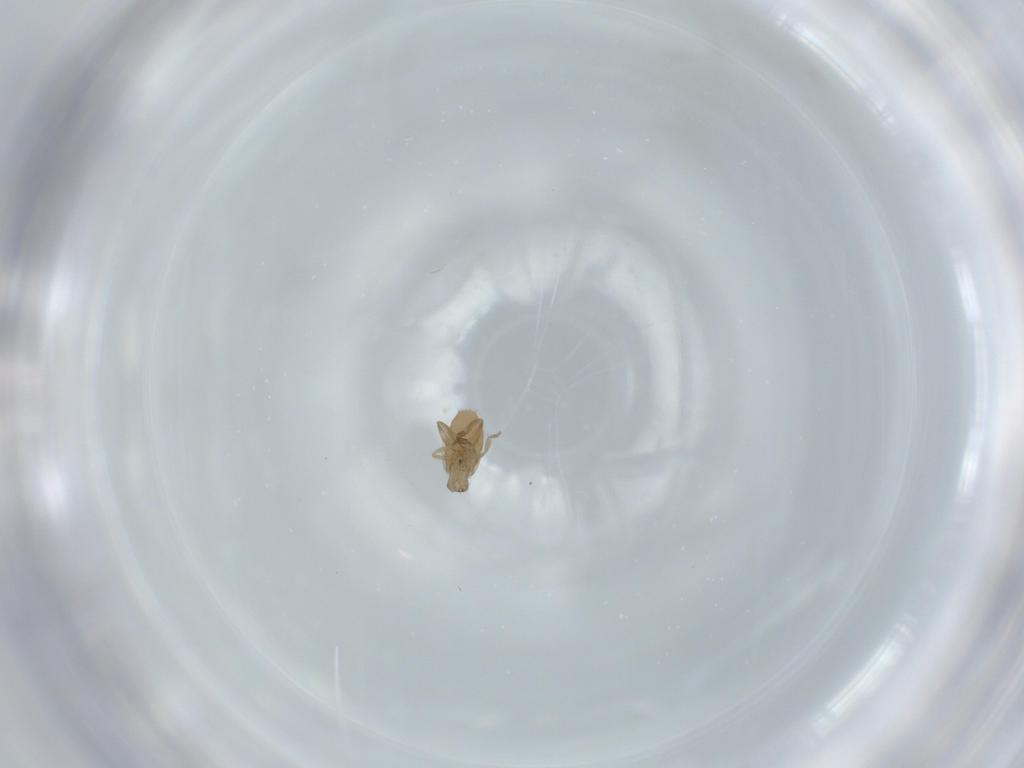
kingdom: Animalia
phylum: Arthropoda
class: Insecta
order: Diptera
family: Phoridae
